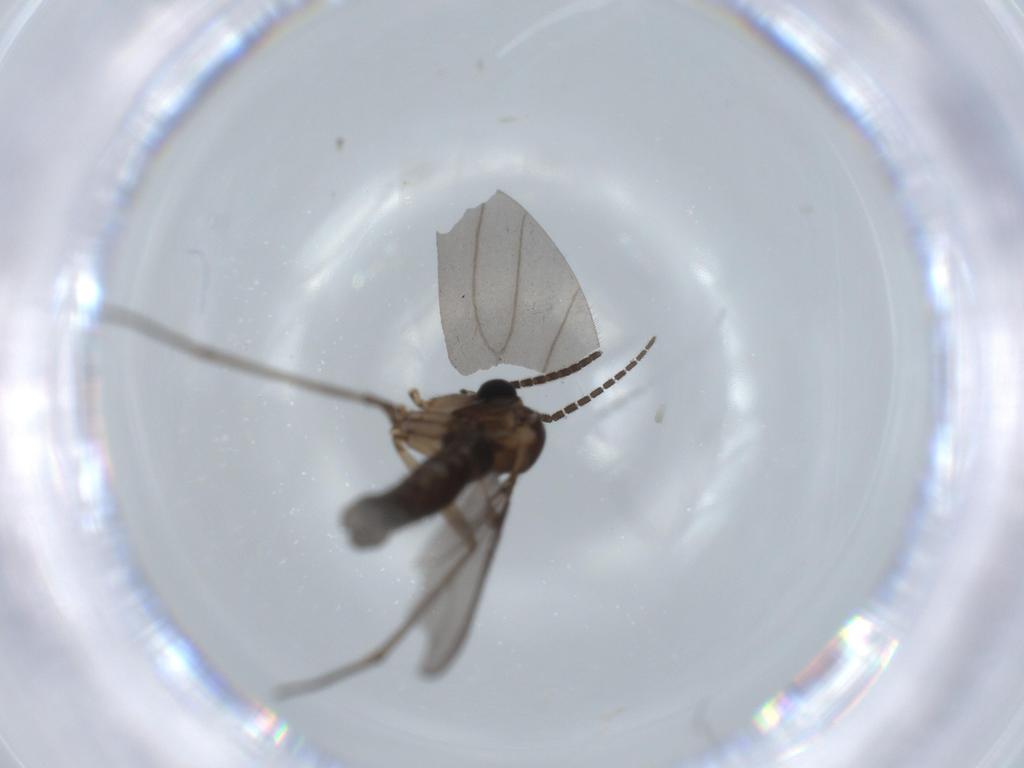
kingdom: Animalia
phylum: Arthropoda
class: Insecta
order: Diptera
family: Sciaridae
